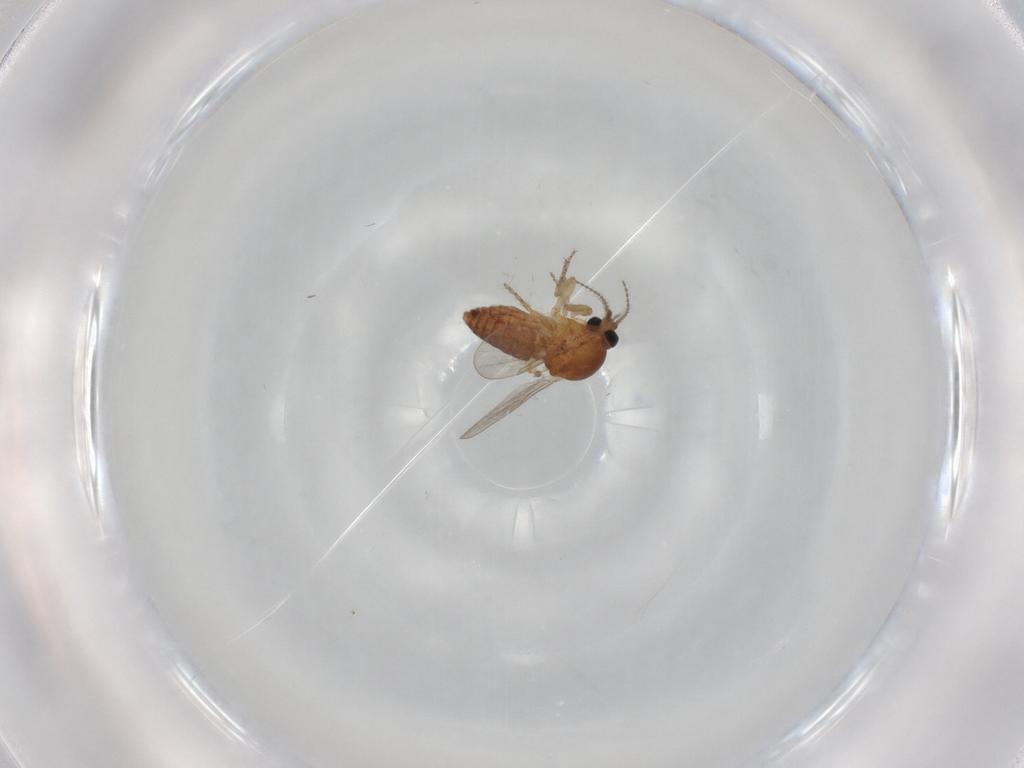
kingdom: Animalia
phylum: Arthropoda
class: Insecta
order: Diptera
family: Ceratopogonidae
